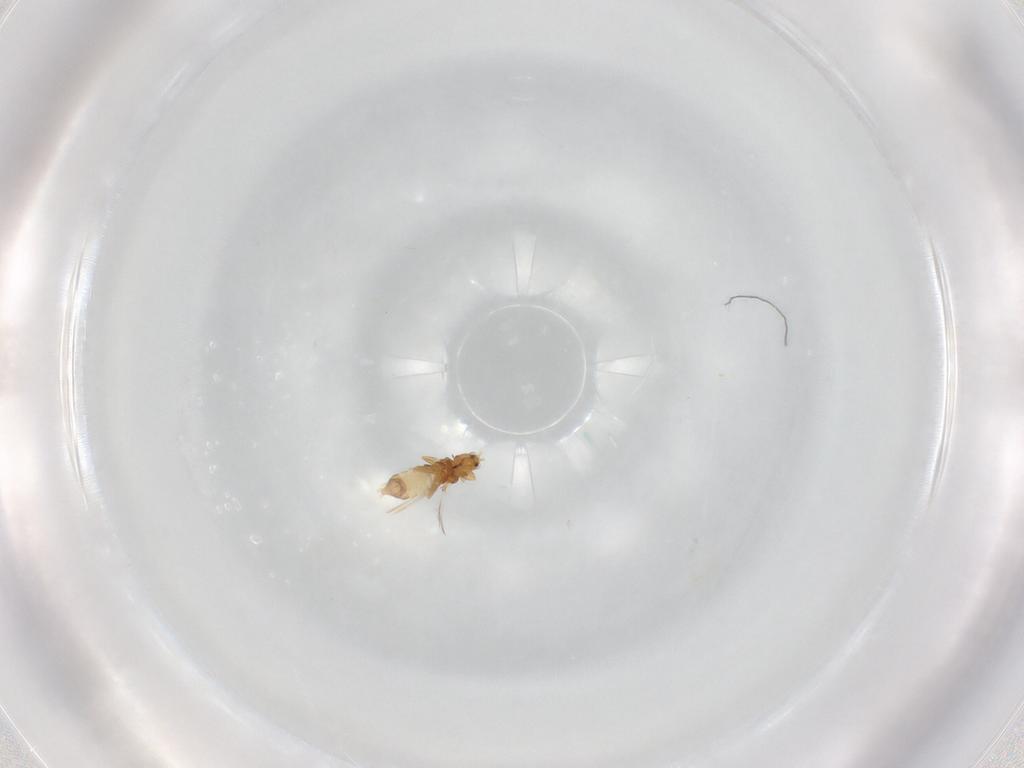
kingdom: Animalia
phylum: Arthropoda
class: Insecta
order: Thysanoptera
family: Thripidae
